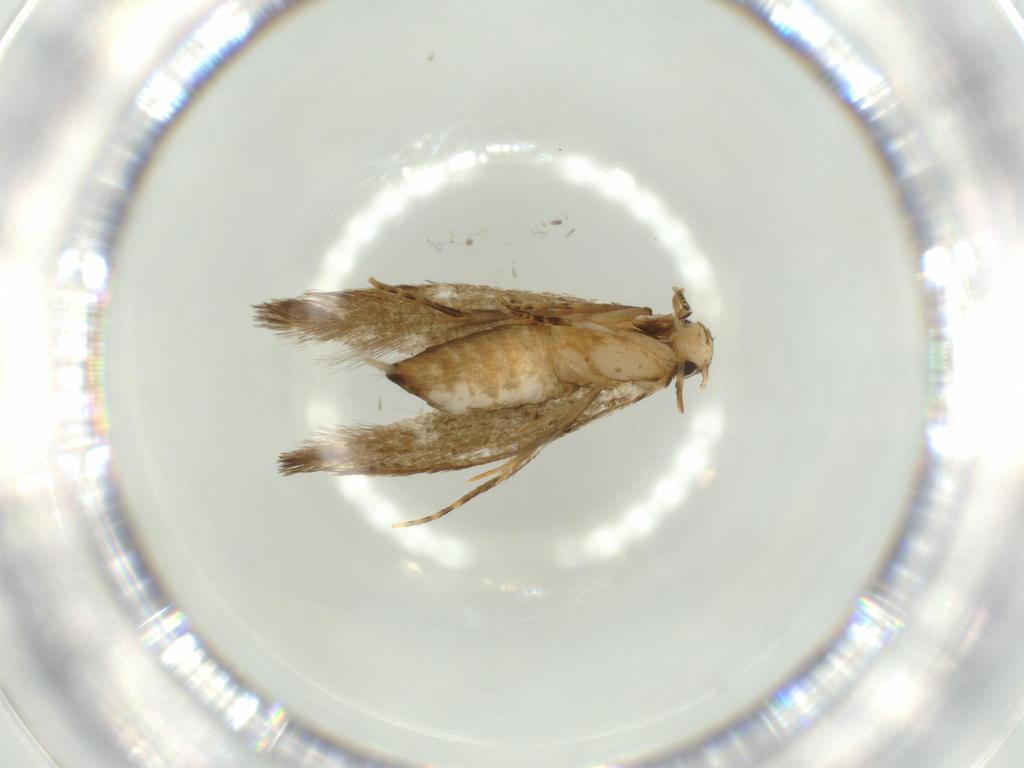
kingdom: Animalia
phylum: Arthropoda
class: Insecta
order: Lepidoptera
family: Tineidae
